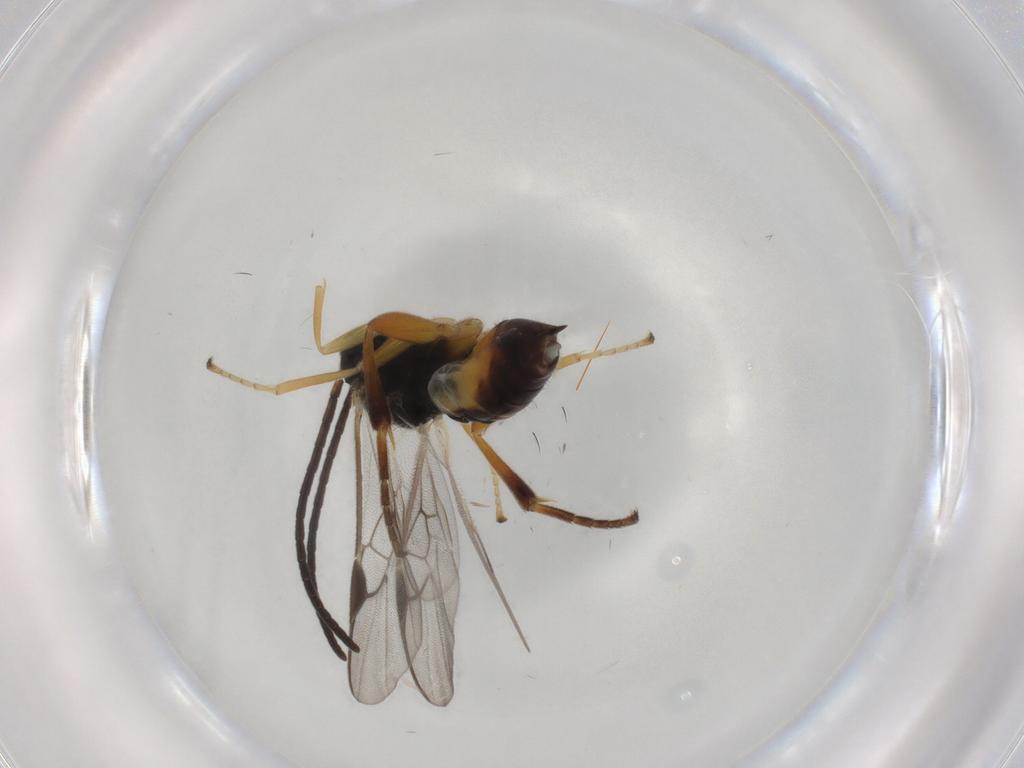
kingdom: Animalia
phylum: Arthropoda
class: Insecta
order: Hymenoptera
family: Braconidae
